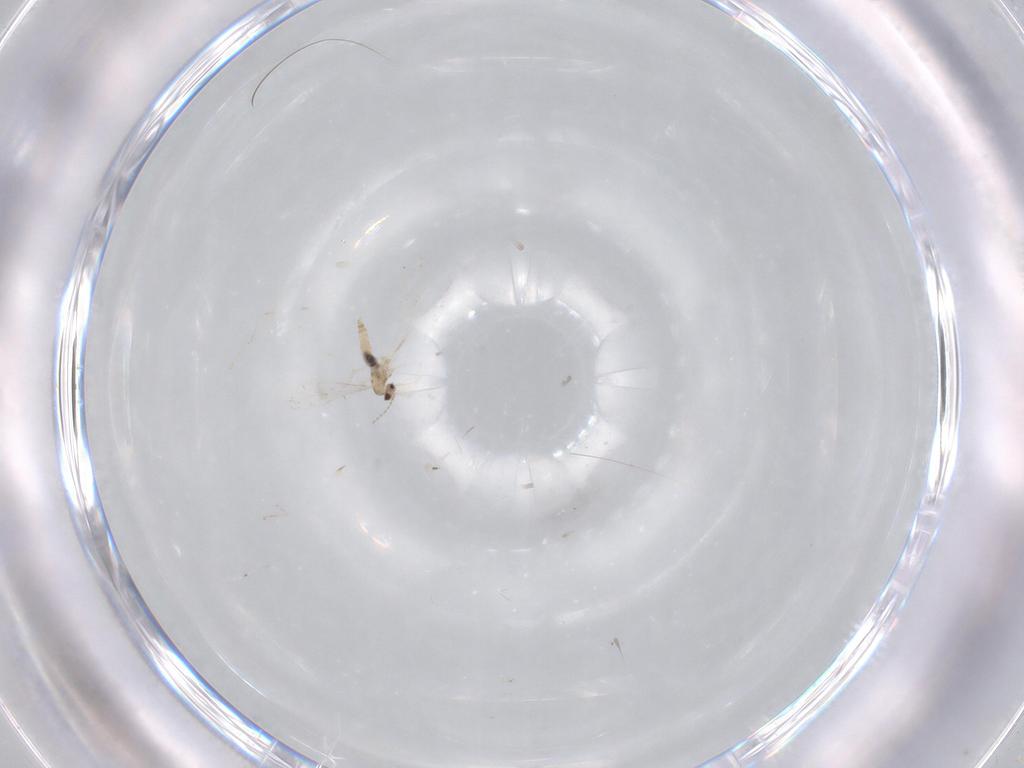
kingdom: Animalia
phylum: Arthropoda
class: Insecta
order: Diptera
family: Cecidomyiidae
